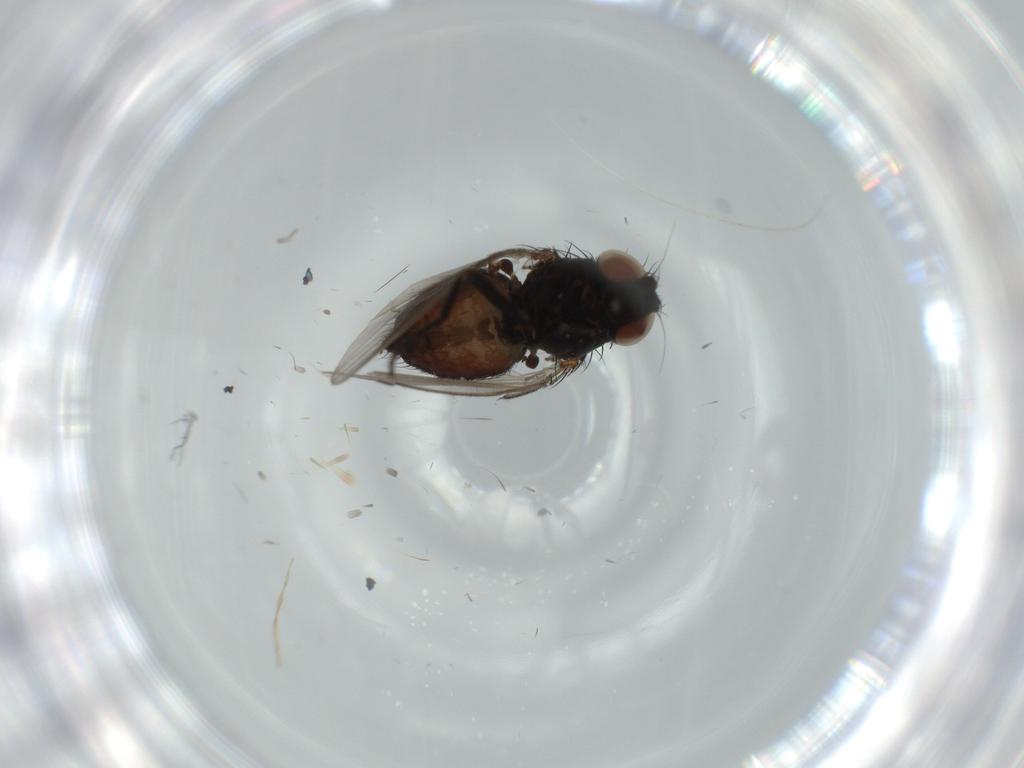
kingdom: Animalia
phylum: Arthropoda
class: Insecta
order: Diptera
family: Milichiidae
